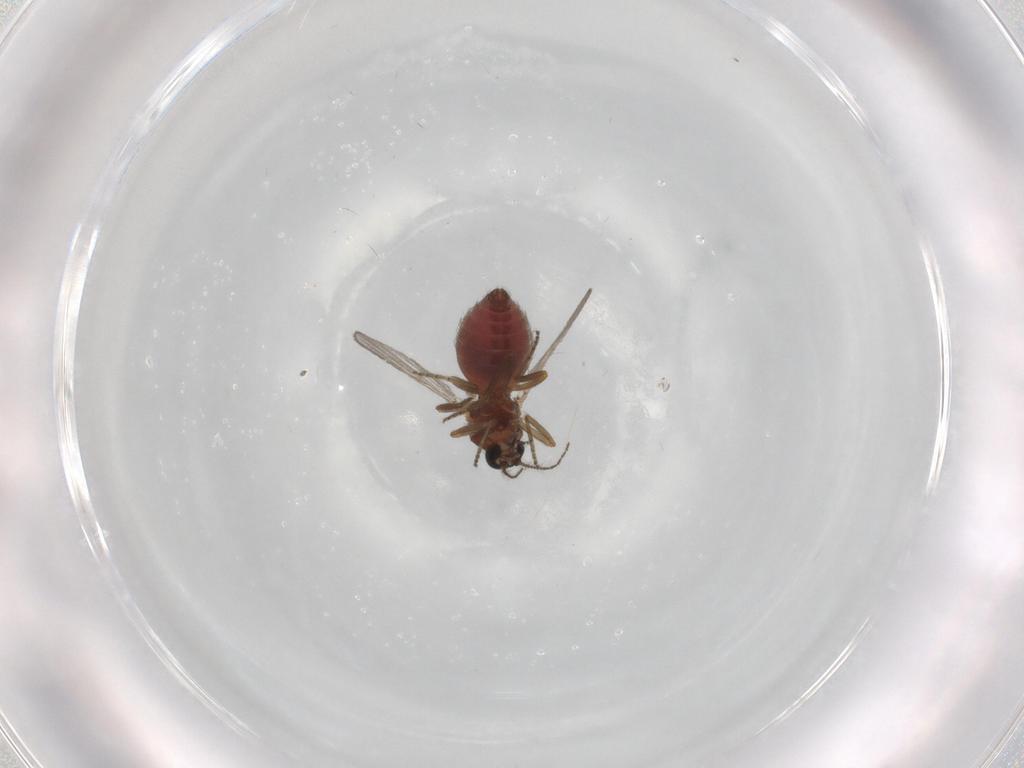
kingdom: Animalia
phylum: Arthropoda
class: Insecta
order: Diptera
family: Ceratopogonidae
